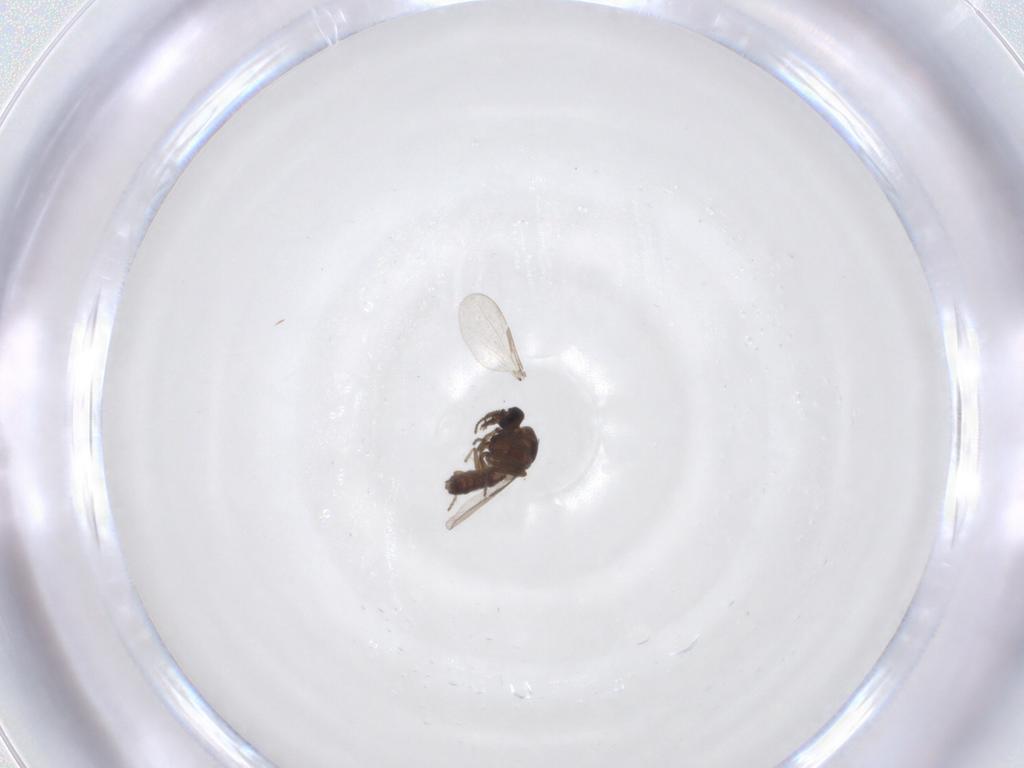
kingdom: Animalia
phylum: Arthropoda
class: Insecta
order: Diptera
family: Ceratopogonidae
